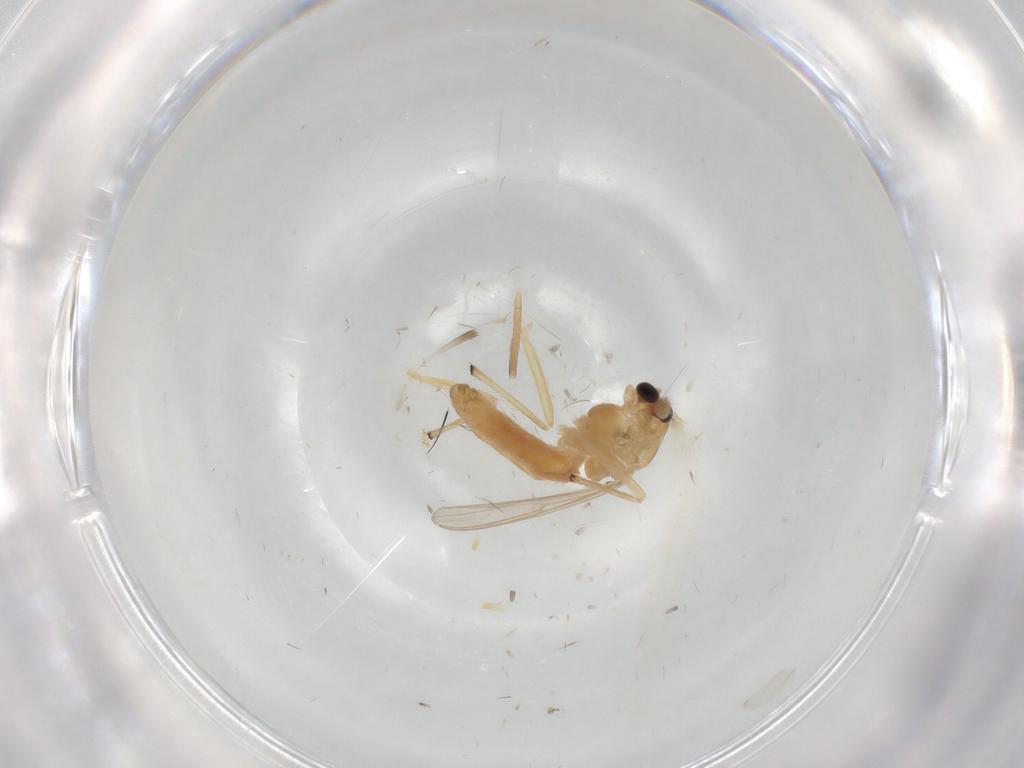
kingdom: Animalia
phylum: Arthropoda
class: Insecta
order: Diptera
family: Chironomidae
